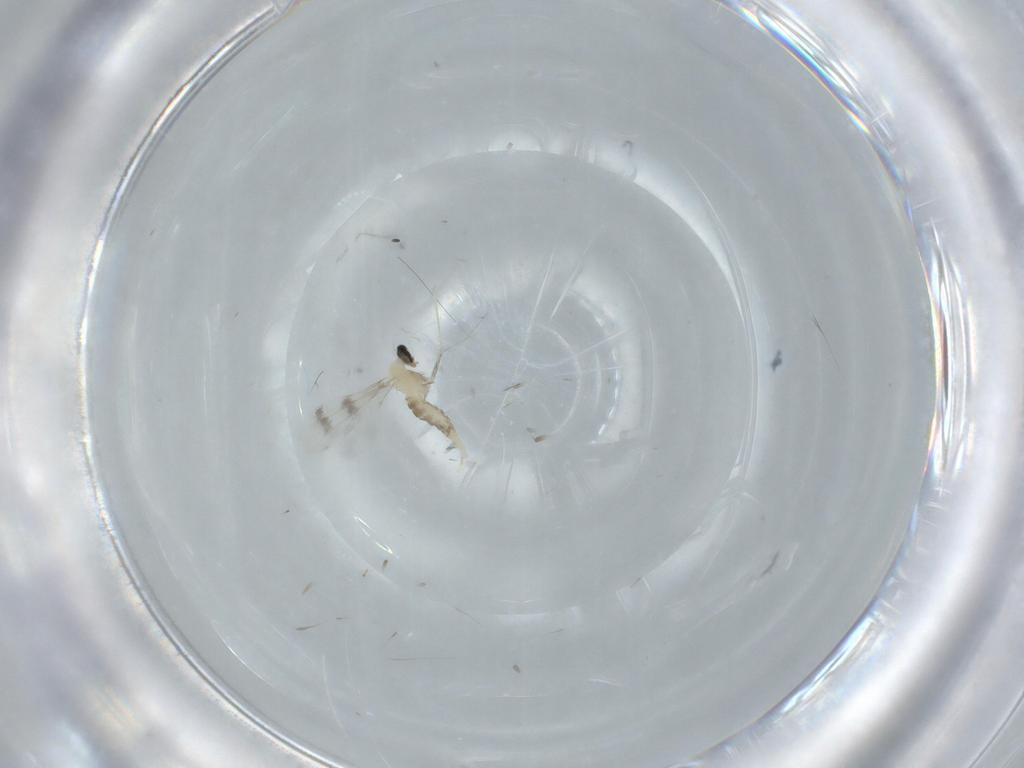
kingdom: Animalia
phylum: Arthropoda
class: Insecta
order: Diptera
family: Cecidomyiidae
